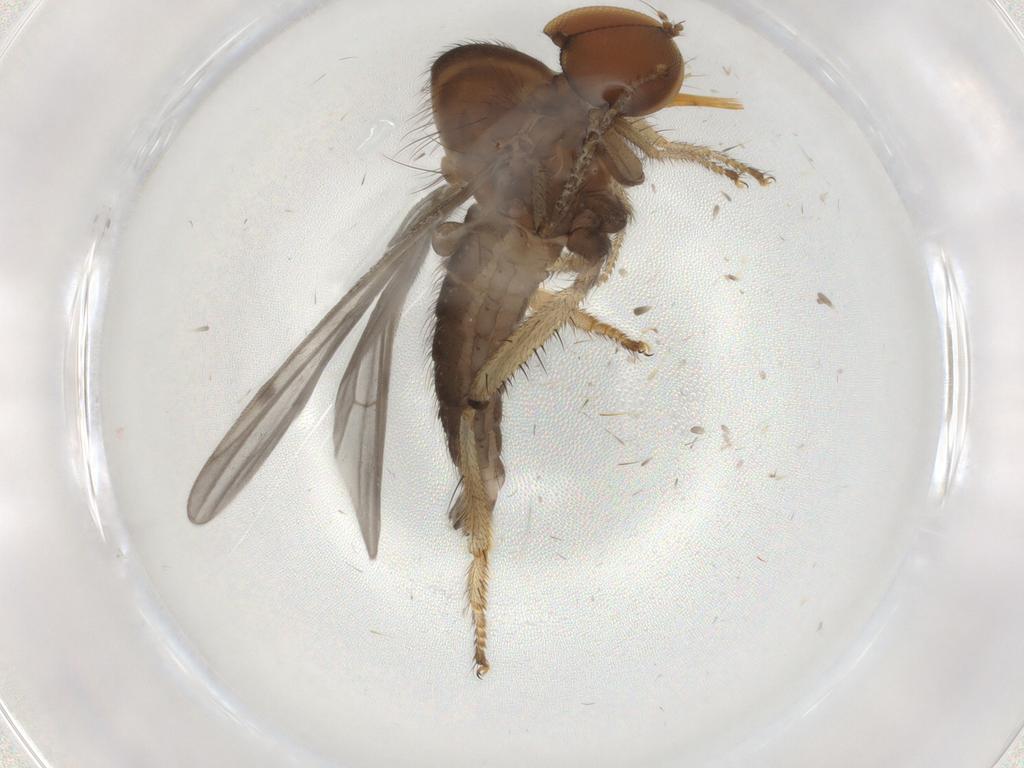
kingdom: Animalia
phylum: Arthropoda
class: Insecta
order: Diptera
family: Hybotidae
